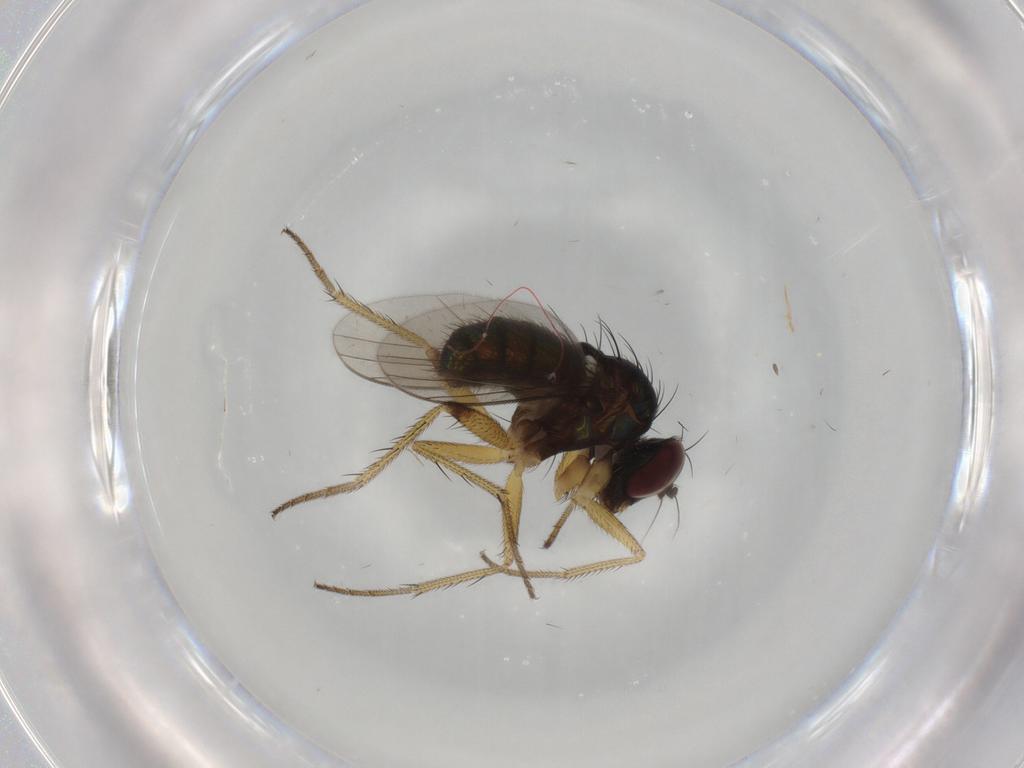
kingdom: Animalia
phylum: Arthropoda
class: Insecta
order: Diptera
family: Dolichopodidae
